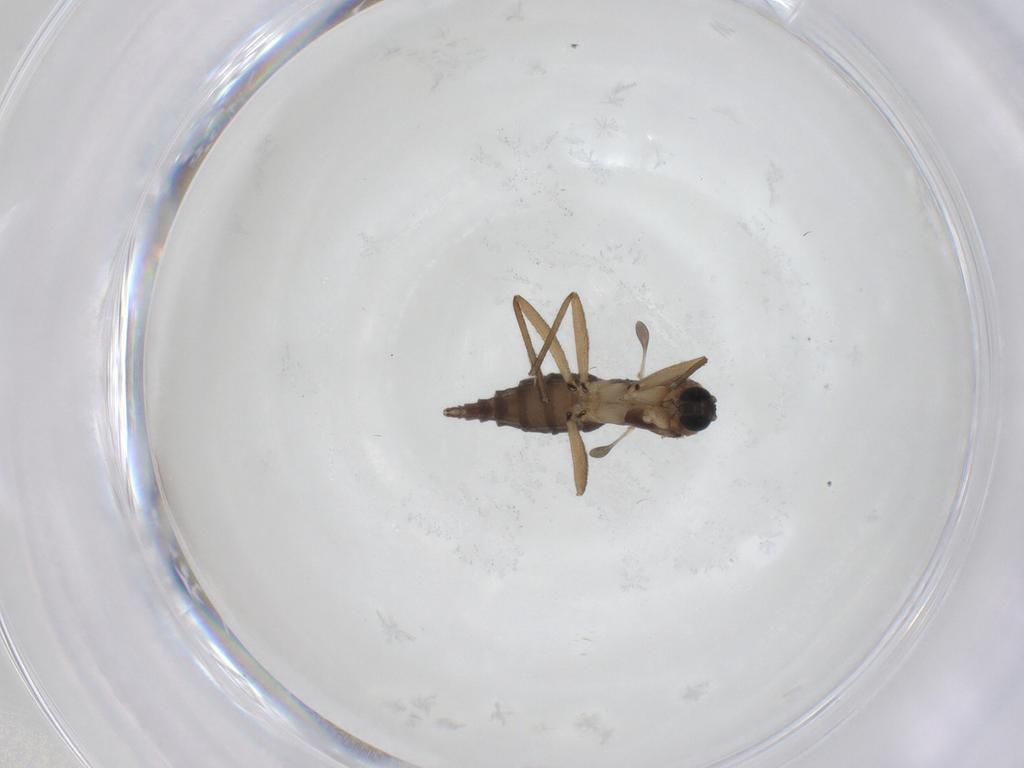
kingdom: Animalia
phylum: Arthropoda
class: Insecta
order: Diptera
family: Sciaridae
